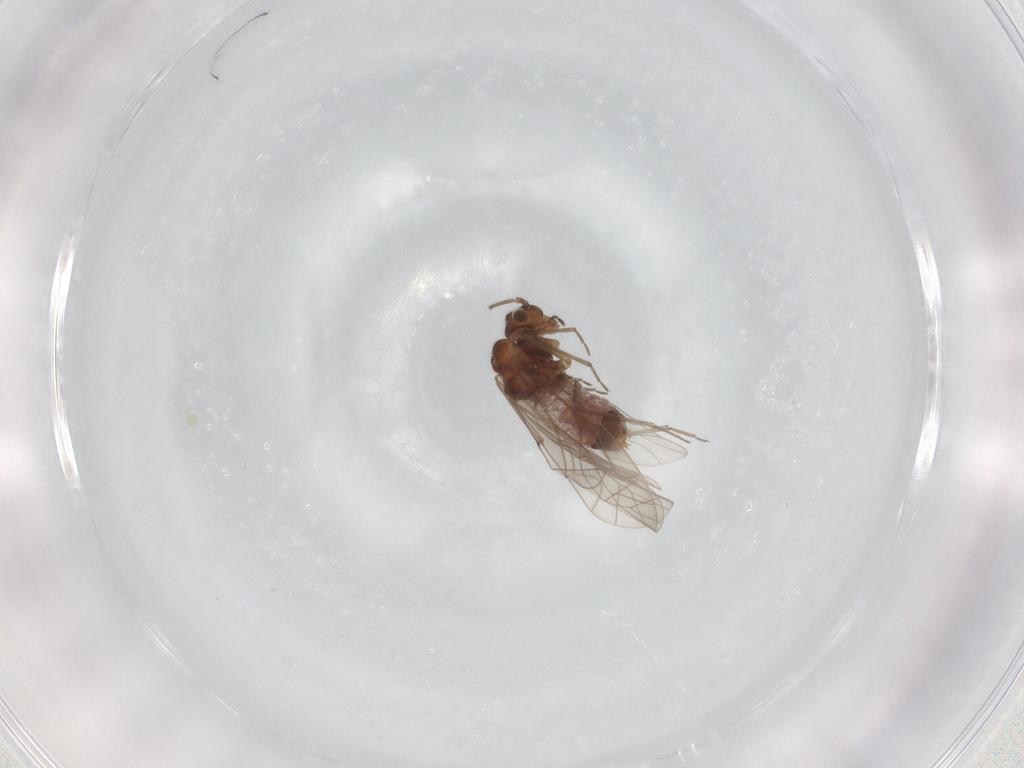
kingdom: Animalia
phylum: Arthropoda
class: Insecta
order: Psocodea
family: Lachesillidae
